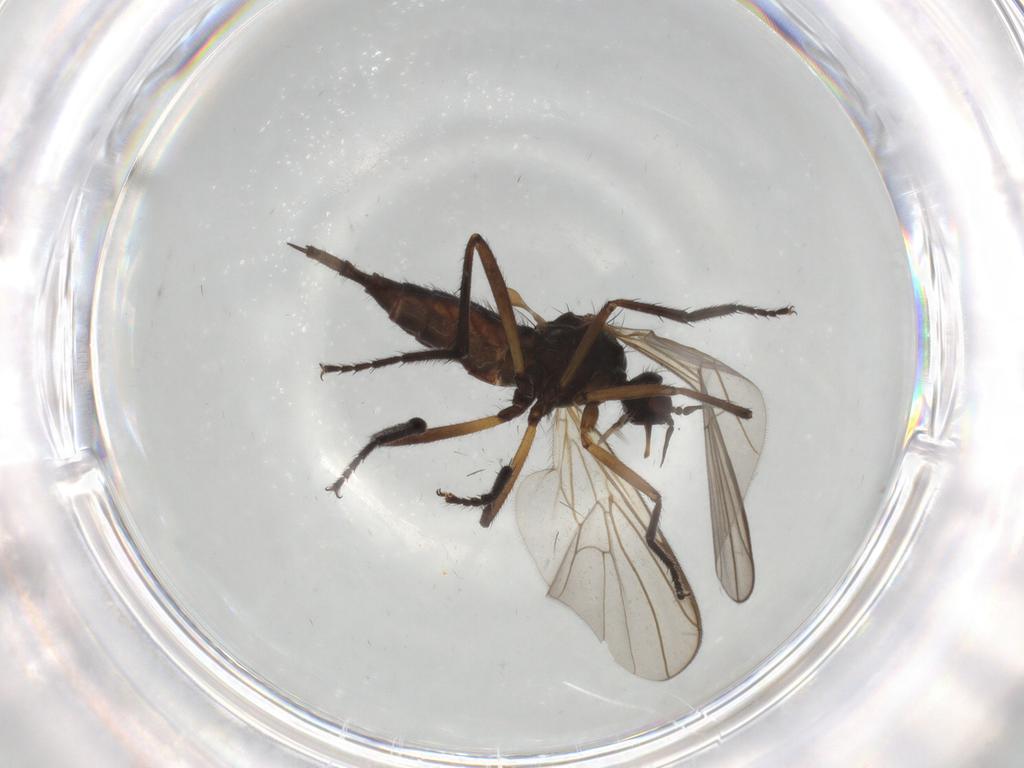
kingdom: Animalia
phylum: Arthropoda
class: Insecta
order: Diptera
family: Empididae
